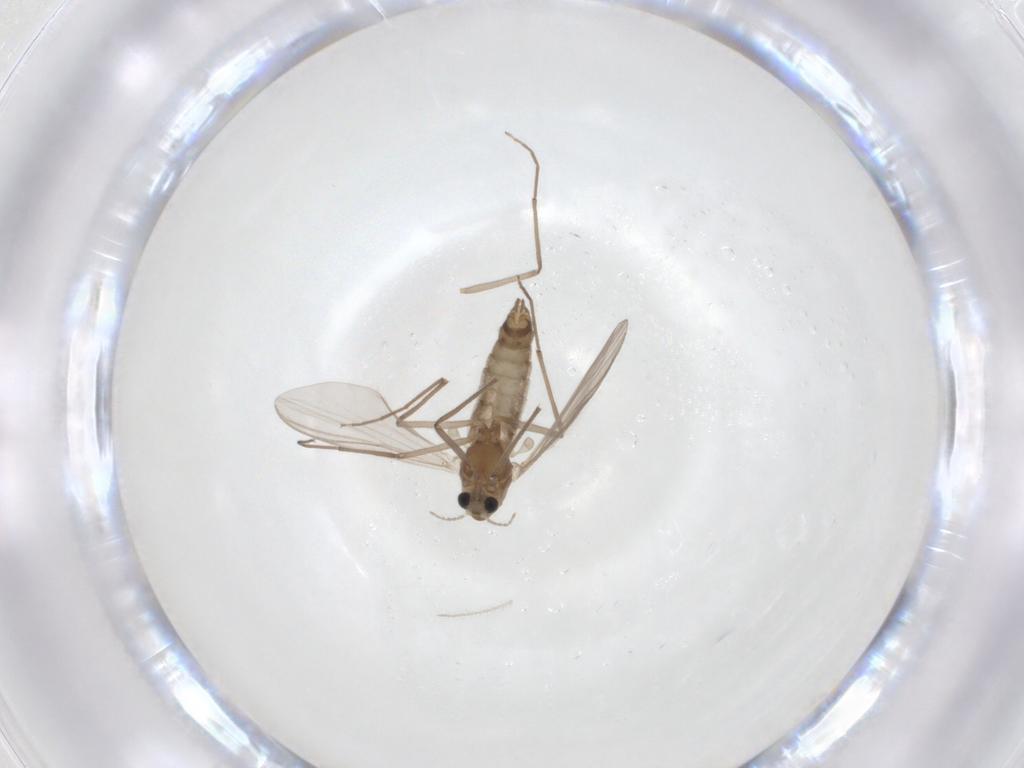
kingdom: Animalia
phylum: Arthropoda
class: Insecta
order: Diptera
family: Chironomidae
